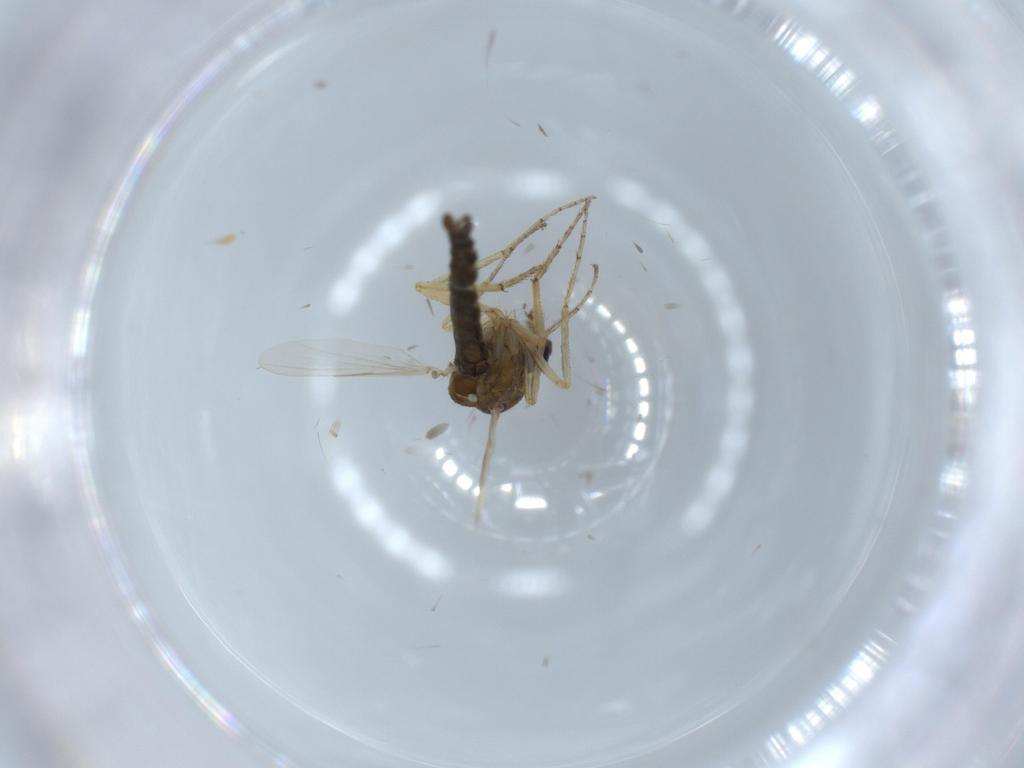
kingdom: Animalia
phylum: Arthropoda
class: Insecta
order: Diptera
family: Ceratopogonidae
